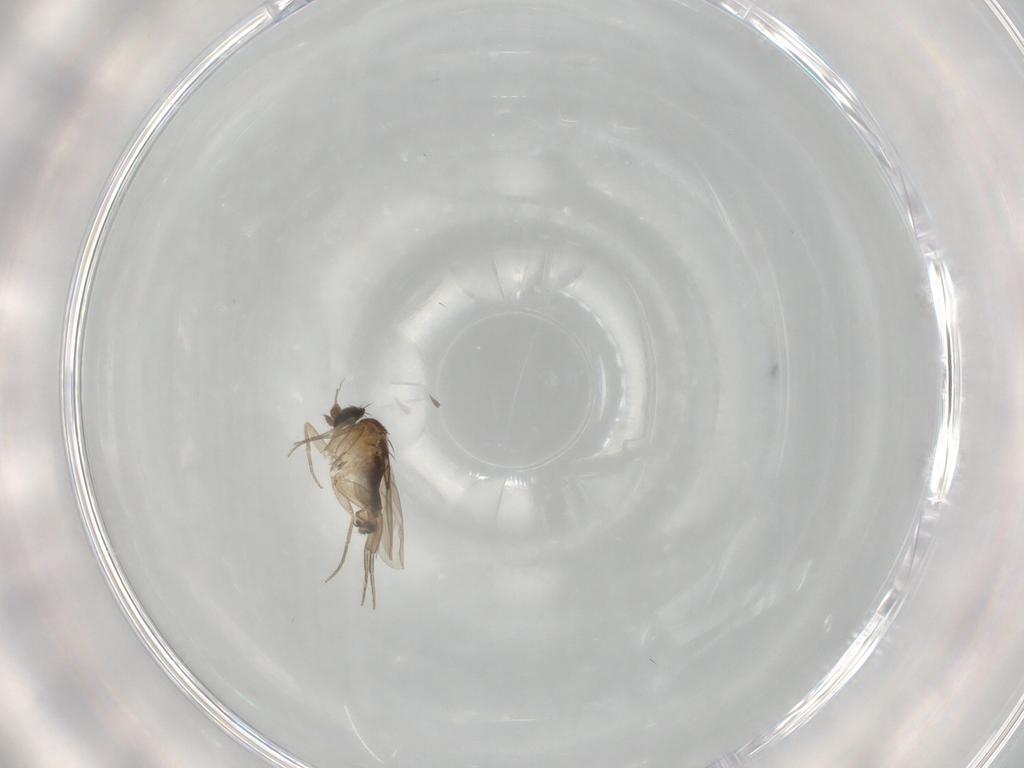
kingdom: Animalia
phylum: Arthropoda
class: Insecta
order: Diptera
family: Phoridae
